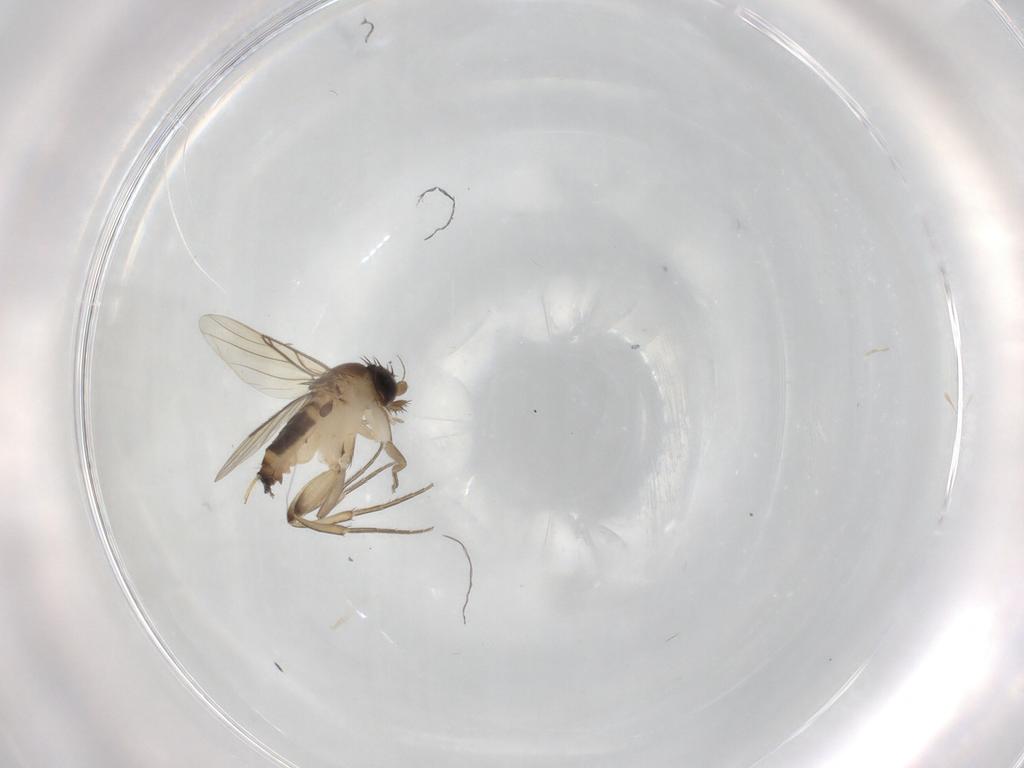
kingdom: Animalia
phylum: Arthropoda
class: Insecta
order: Diptera
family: Phoridae
